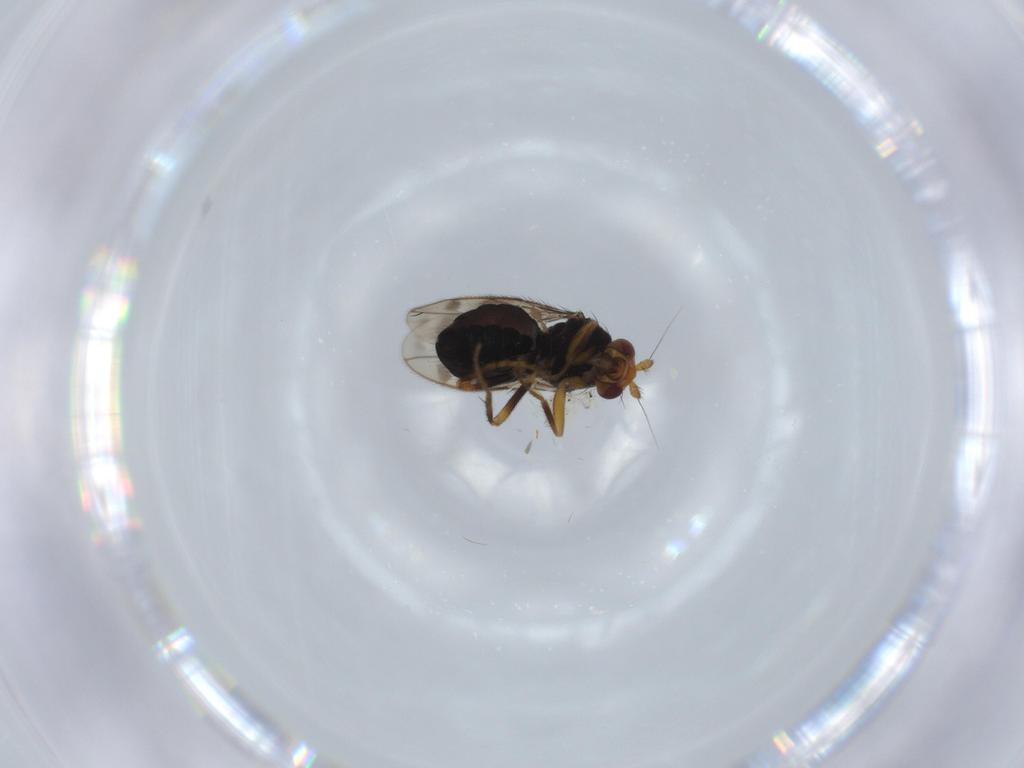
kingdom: Animalia
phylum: Arthropoda
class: Insecta
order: Diptera
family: Sphaeroceridae
